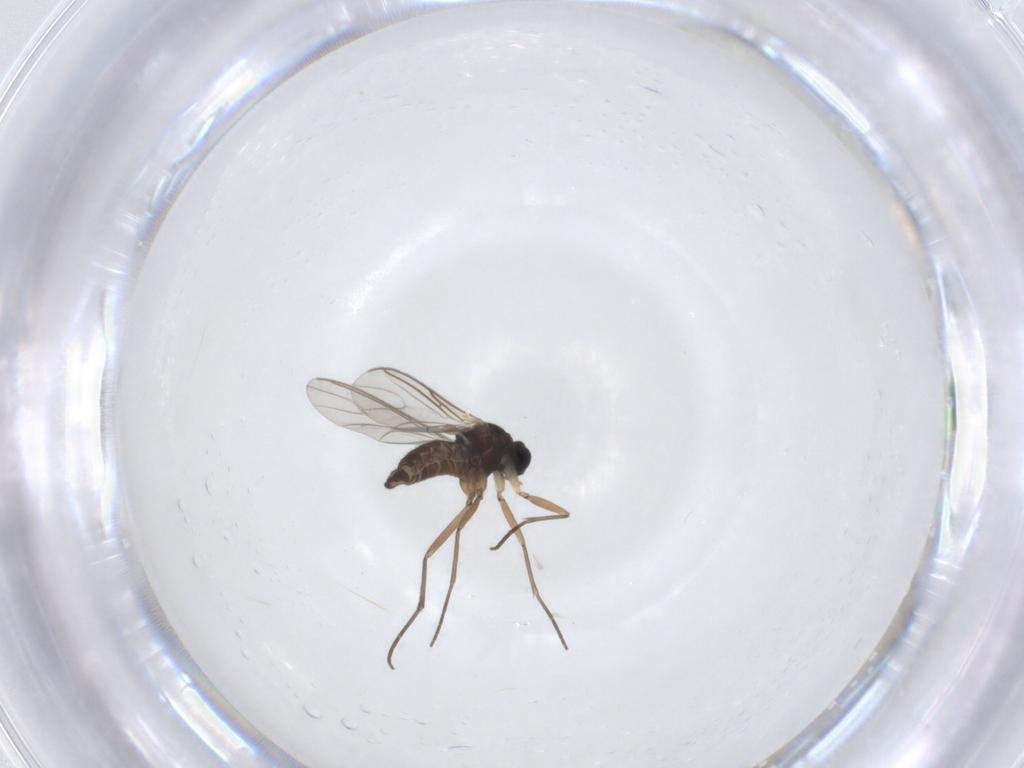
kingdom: Animalia
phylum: Arthropoda
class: Insecta
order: Diptera
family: Sciaridae
